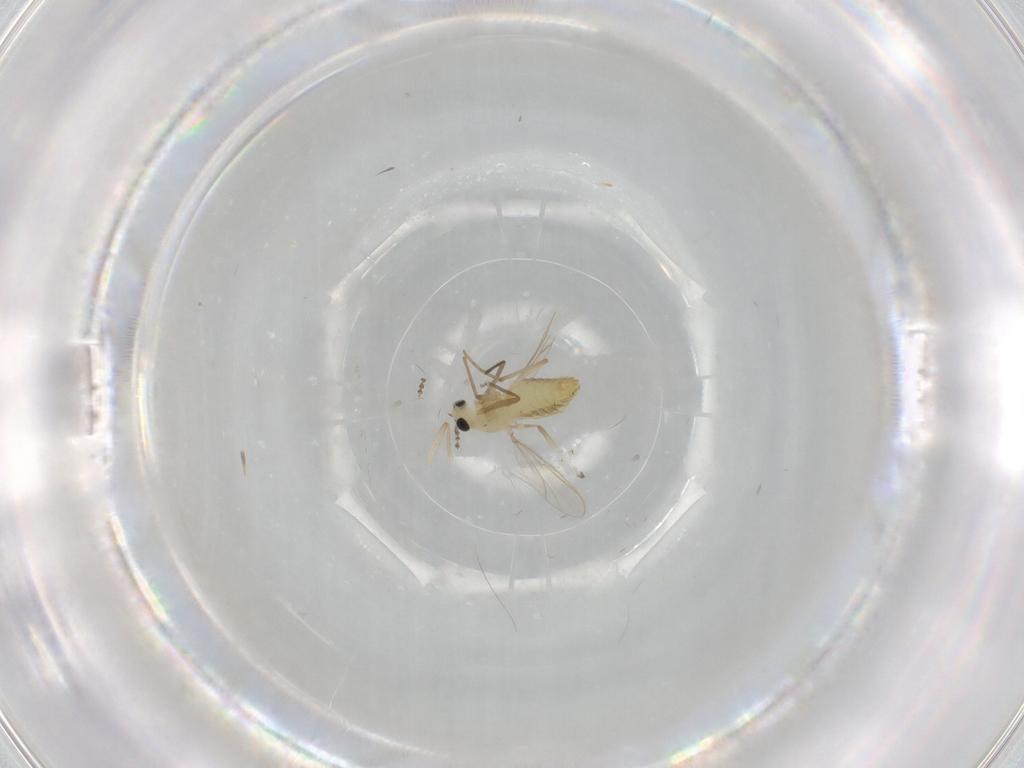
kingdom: Animalia
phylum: Arthropoda
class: Insecta
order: Diptera
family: Cecidomyiidae
